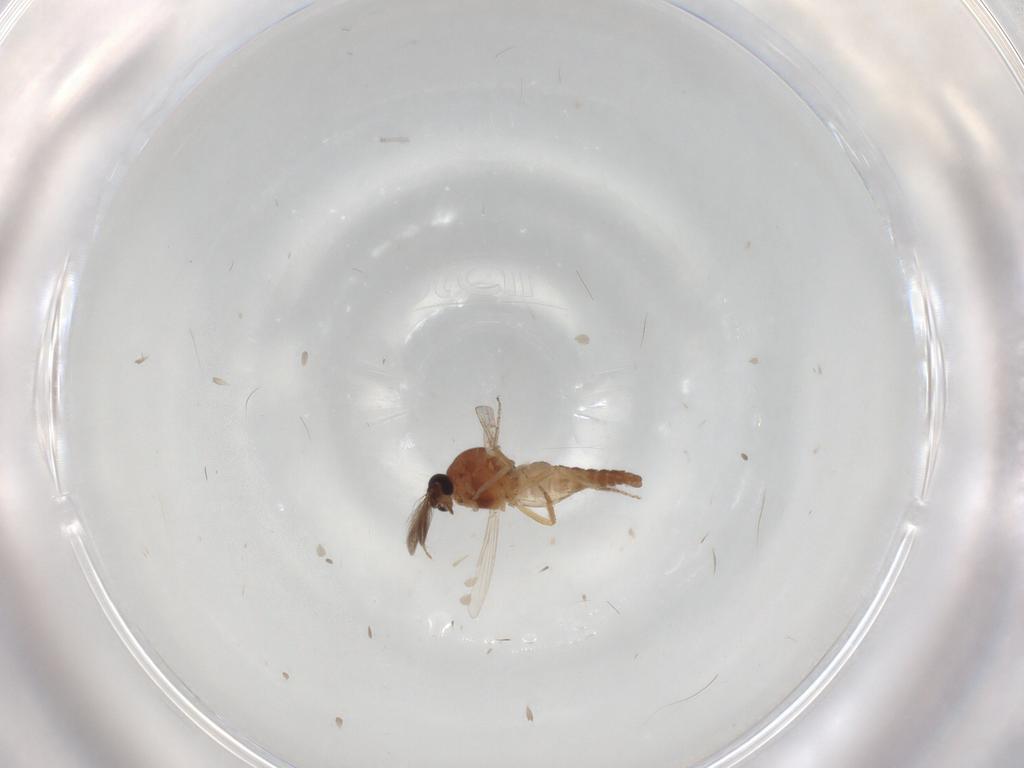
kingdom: Animalia
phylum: Arthropoda
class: Insecta
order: Diptera
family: Ceratopogonidae
